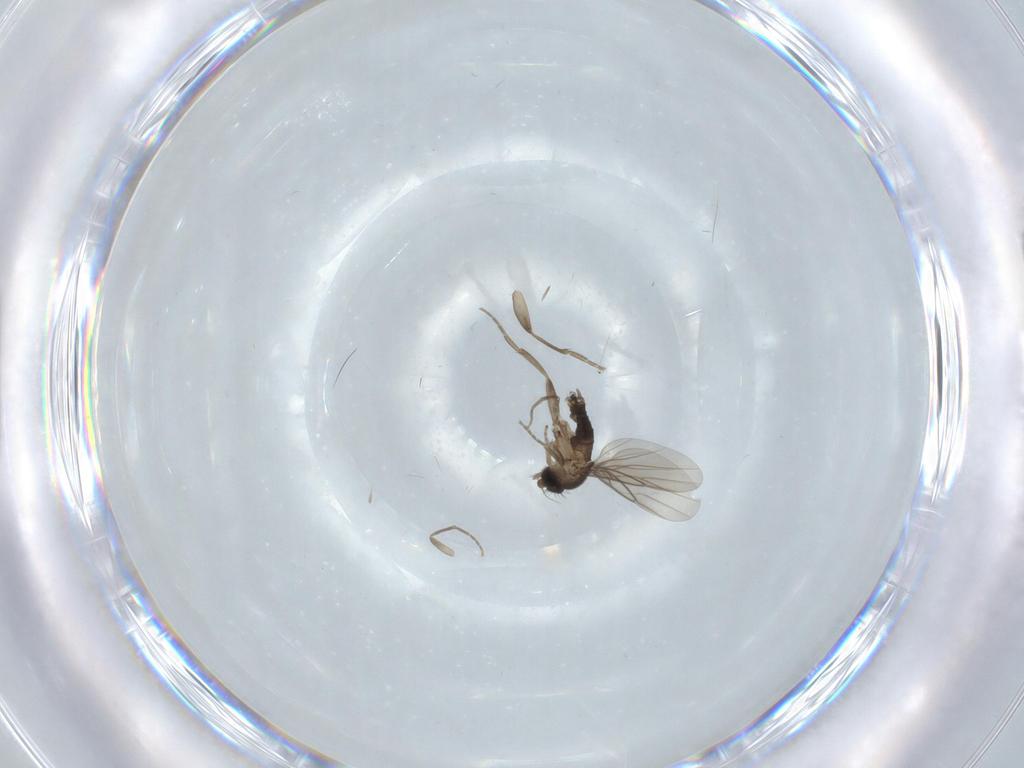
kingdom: Animalia
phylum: Arthropoda
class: Insecta
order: Diptera
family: Phoridae
